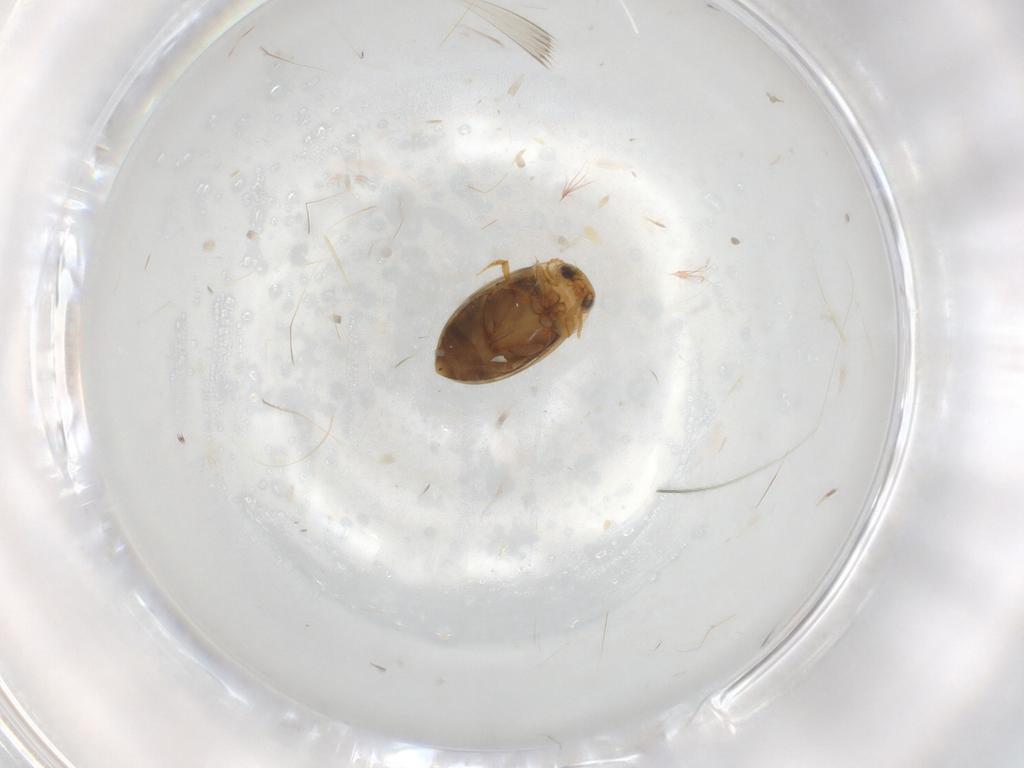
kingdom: Animalia
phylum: Arthropoda
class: Insecta
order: Coleoptera
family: Dytiscidae
